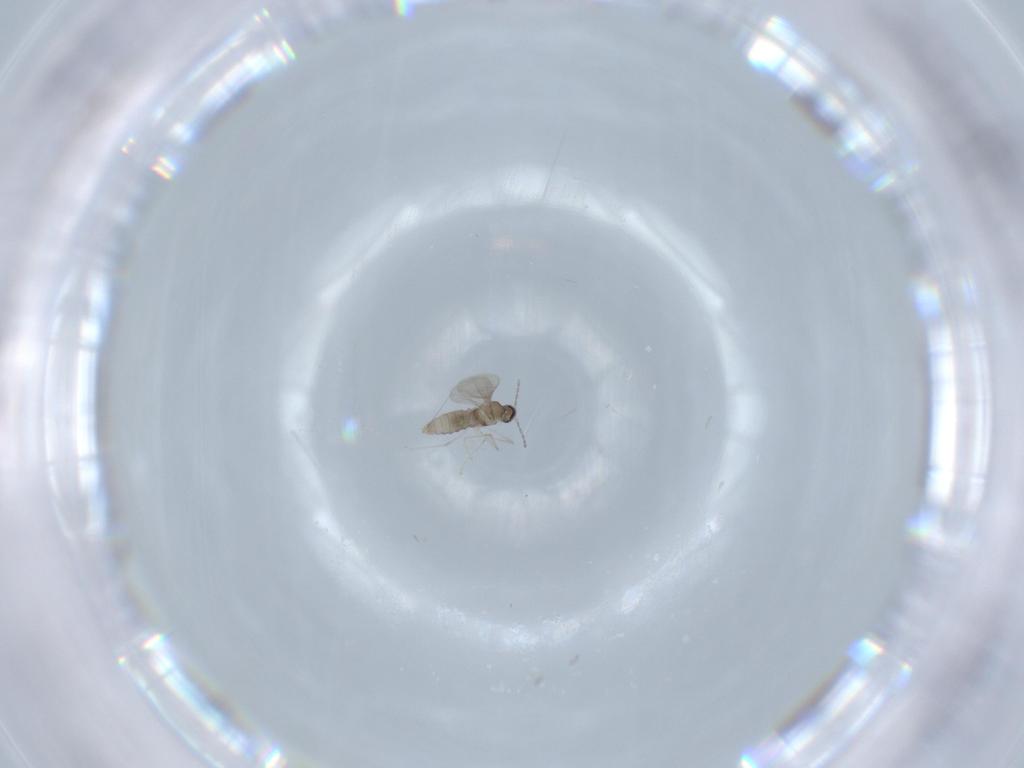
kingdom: Animalia
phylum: Arthropoda
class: Insecta
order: Diptera
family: Cecidomyiidae
